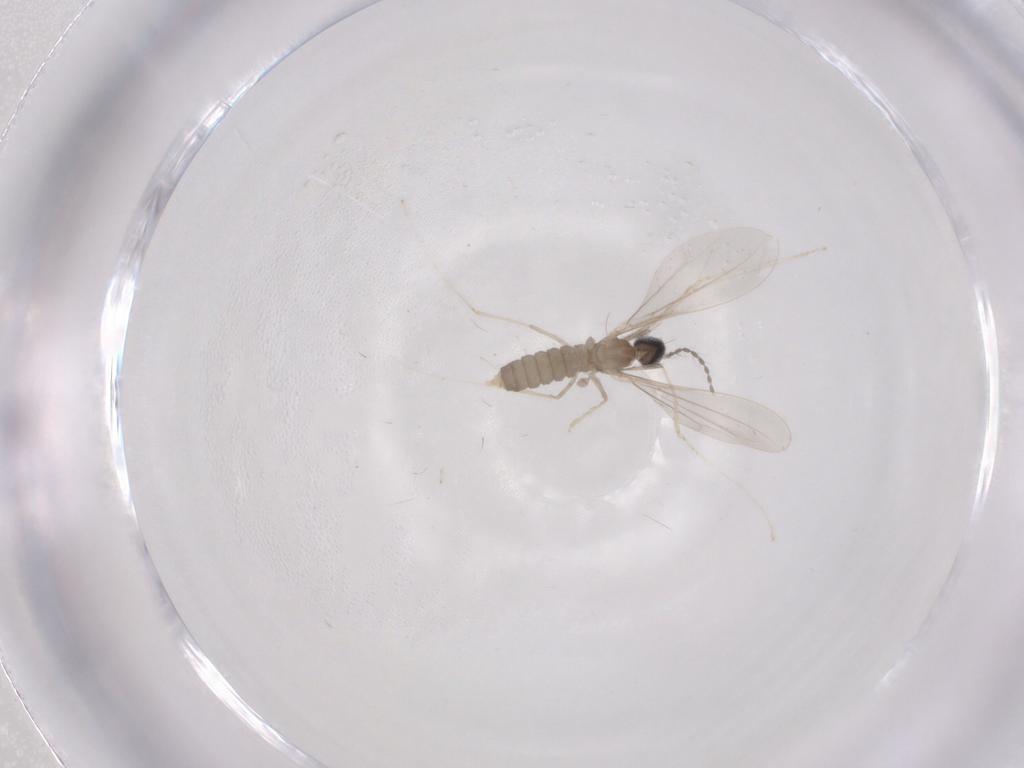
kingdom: Animalia
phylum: Arthropoda
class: Insecta
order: Diptera
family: Cecidomyiidae
